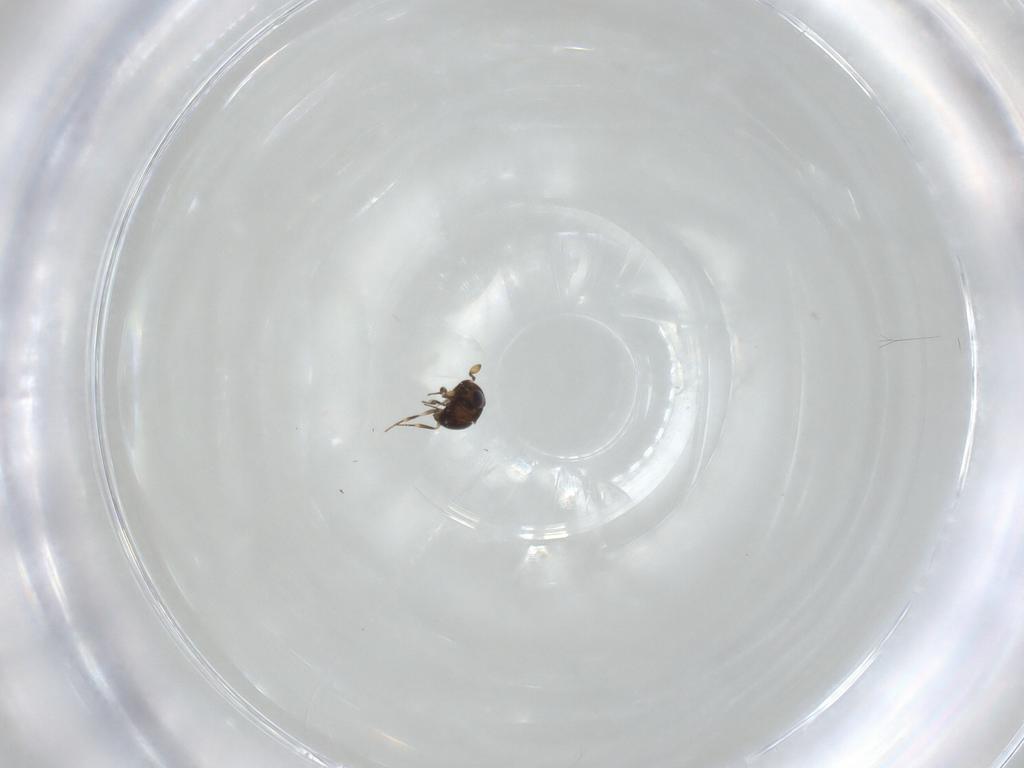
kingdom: Animalia
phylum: Arthropoda
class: Insecta
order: Hymenoptera
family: Scelionidae
